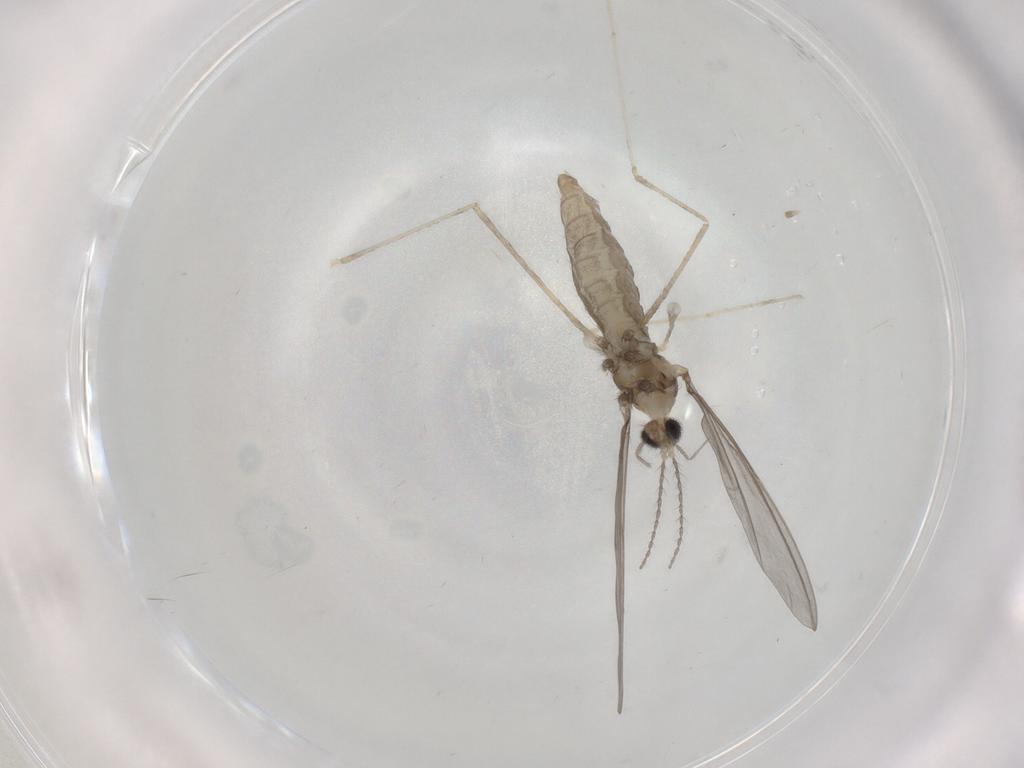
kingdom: Animalia
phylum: Arthropoda
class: Insecta
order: Diptera
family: Cecidomyiidae
